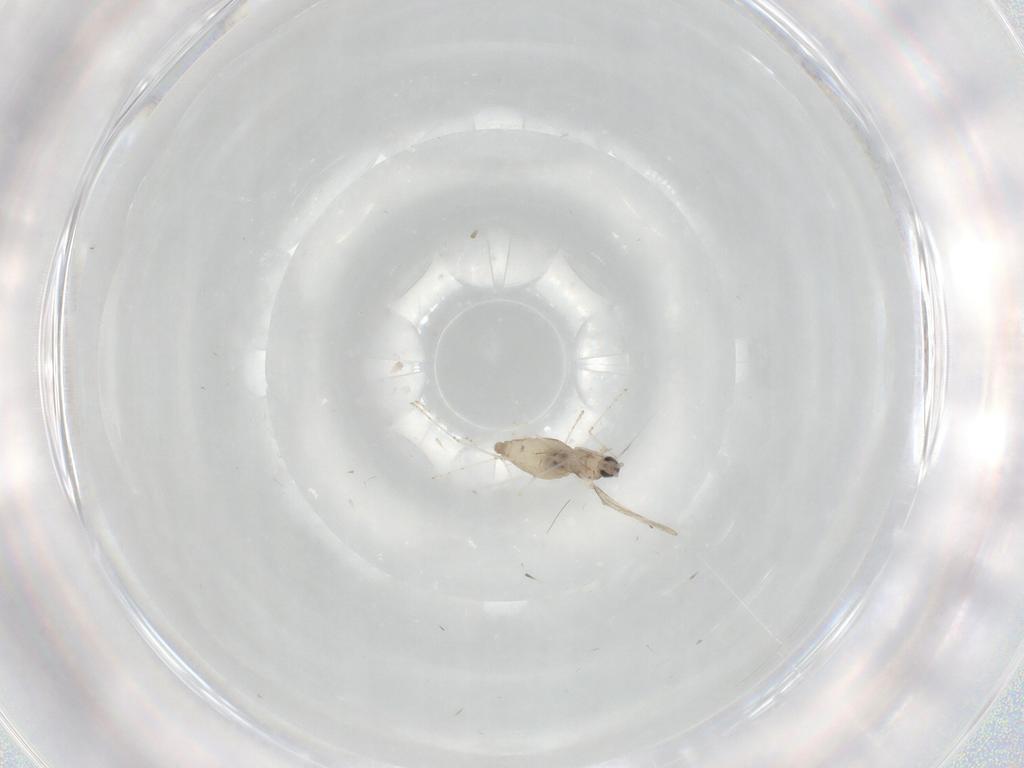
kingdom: Animalia
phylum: Arthropoda
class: Insecta
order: Diptera
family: Cecidomyiidae
